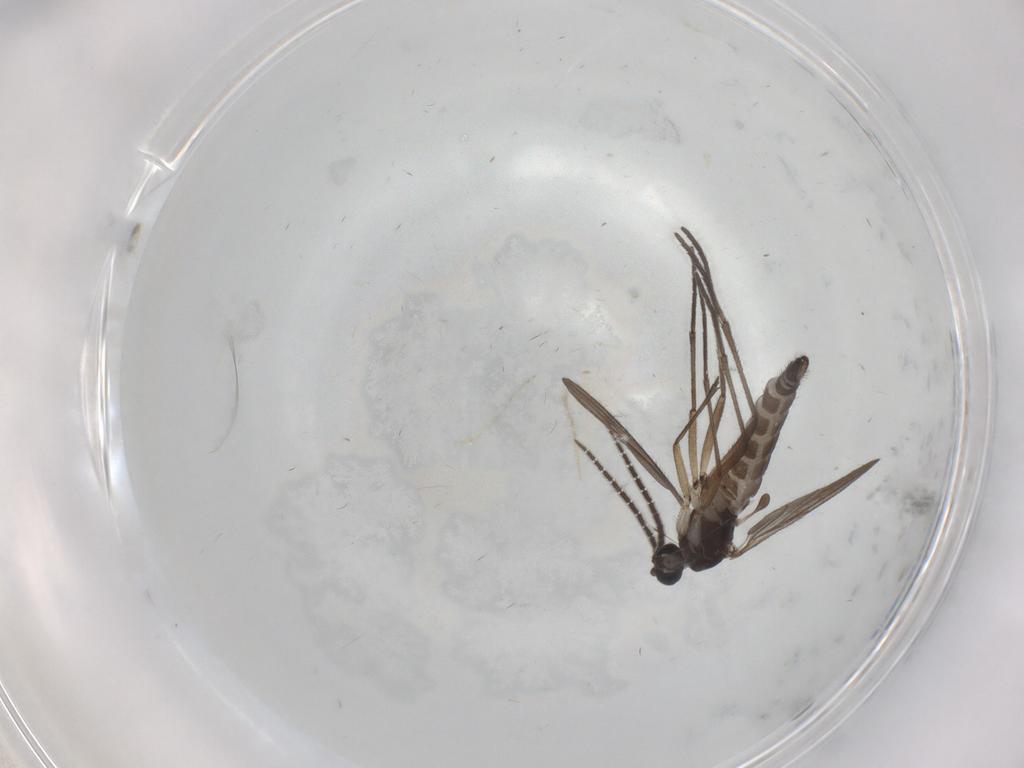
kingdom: Animalia
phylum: Arthropoda
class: Insecta
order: Diptera
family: Sciaridae
